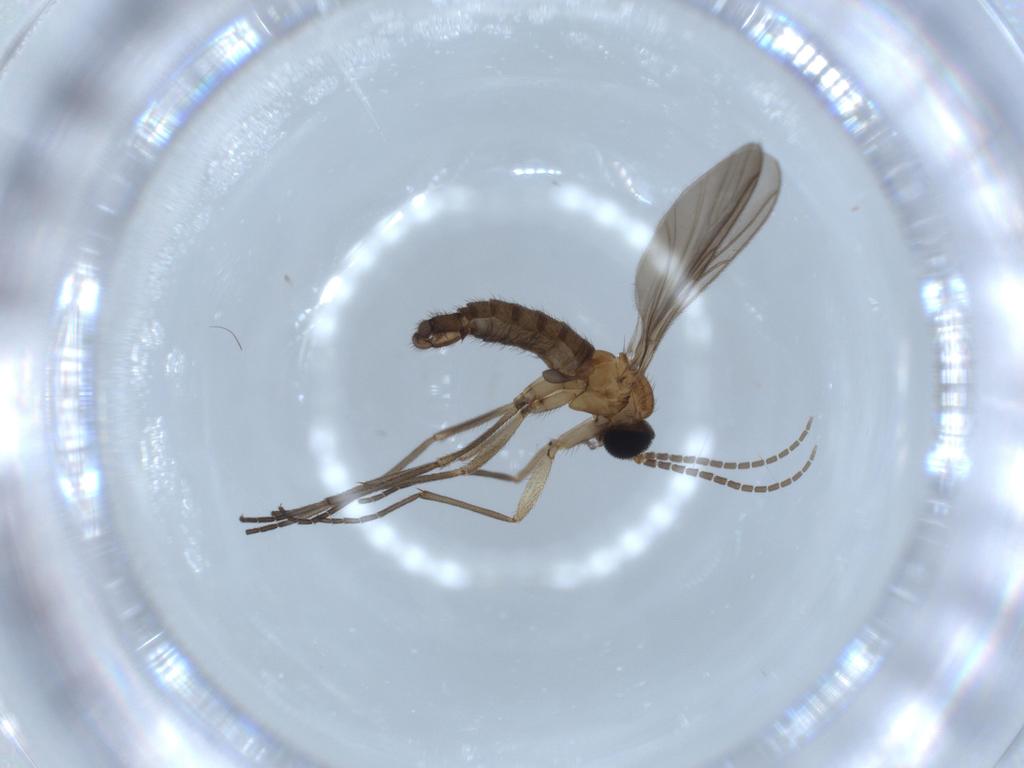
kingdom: Animalia
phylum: Arthropoda
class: Insecta
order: Diptera
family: Sciaridae
